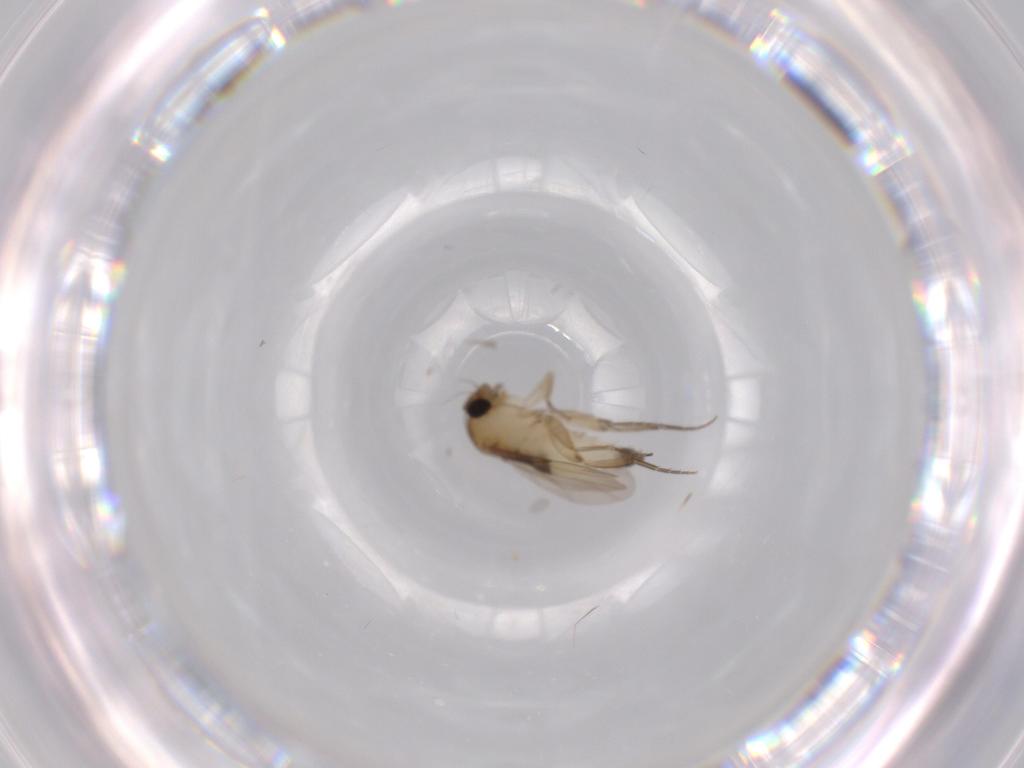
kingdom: Animalia
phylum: Arthropoda
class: Insecta
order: Diptera
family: Phoridae
